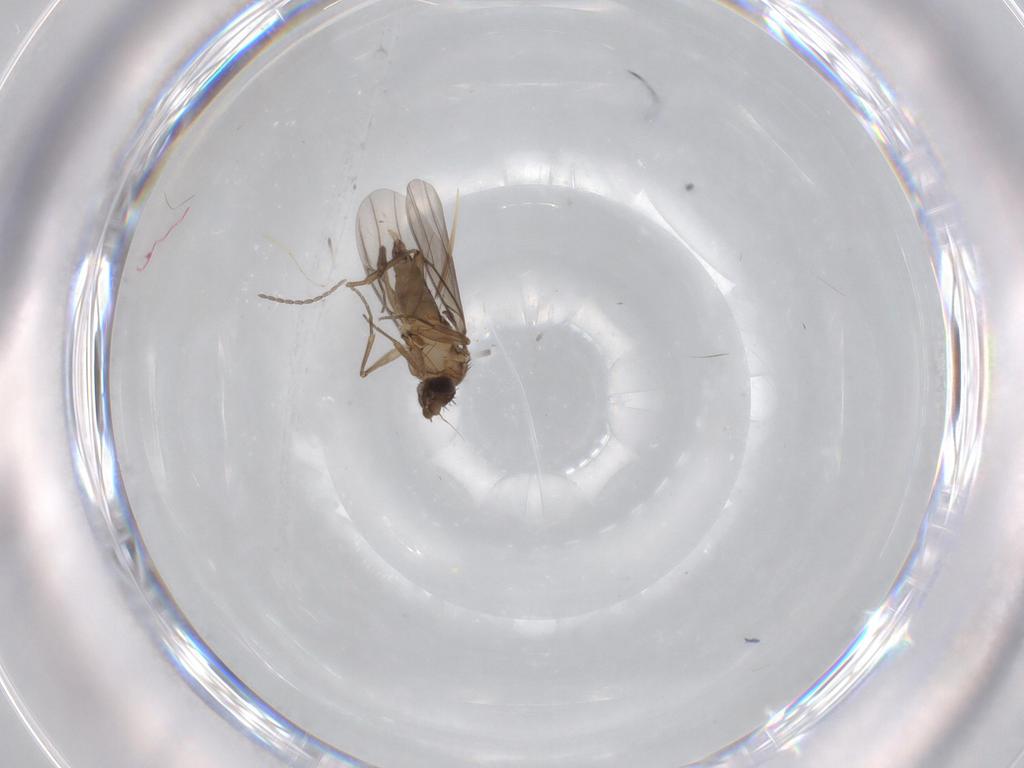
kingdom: Animalia
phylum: Arthropoda
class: Insecta
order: Diptera
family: Phoridae
